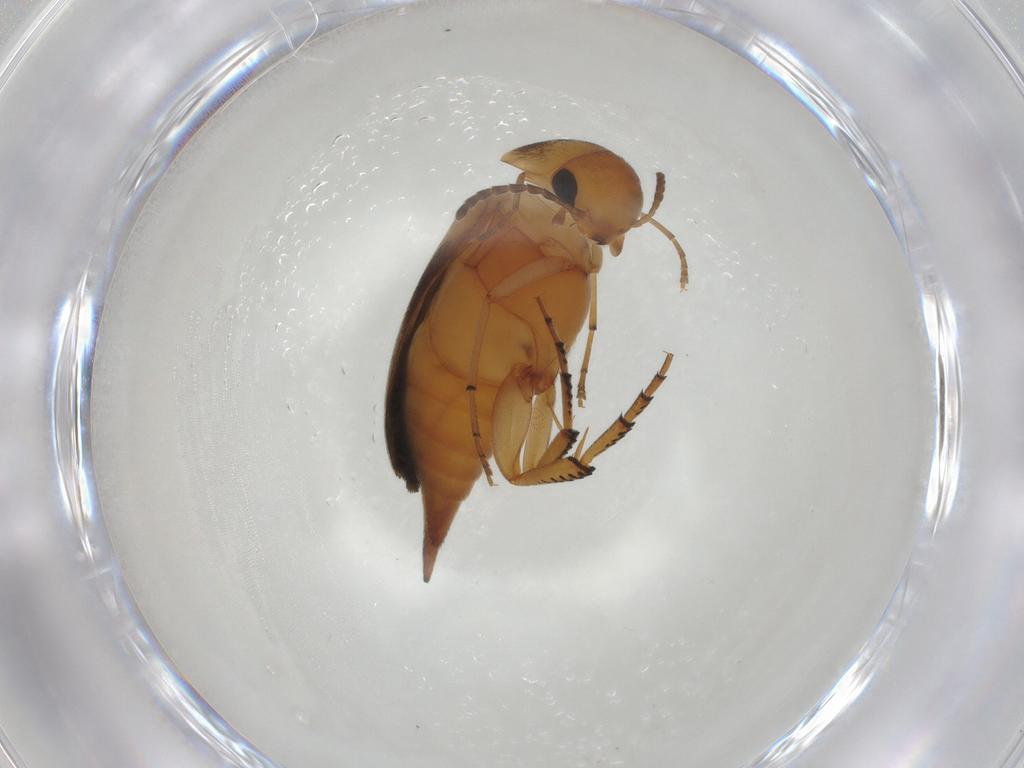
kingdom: Animalia
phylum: Arthropoda
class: Insecta
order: Coleoptera
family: Mordellidae
